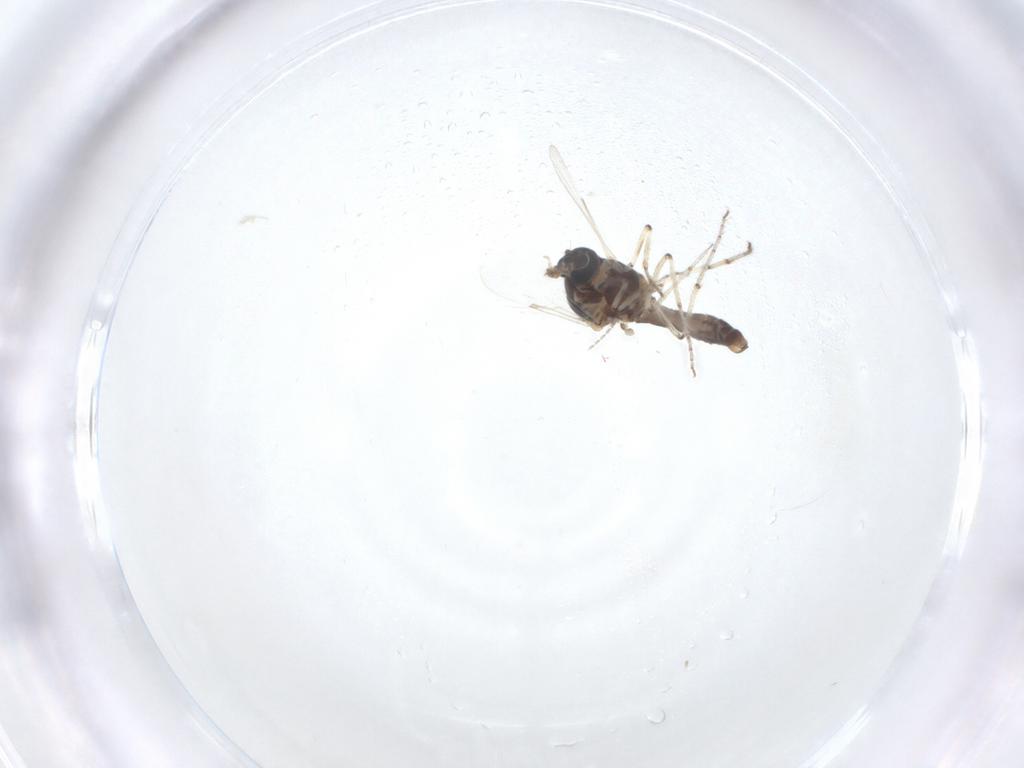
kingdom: Animalia
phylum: Arthropoda
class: Insecta
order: Diptera
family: Ceratopogonidae
